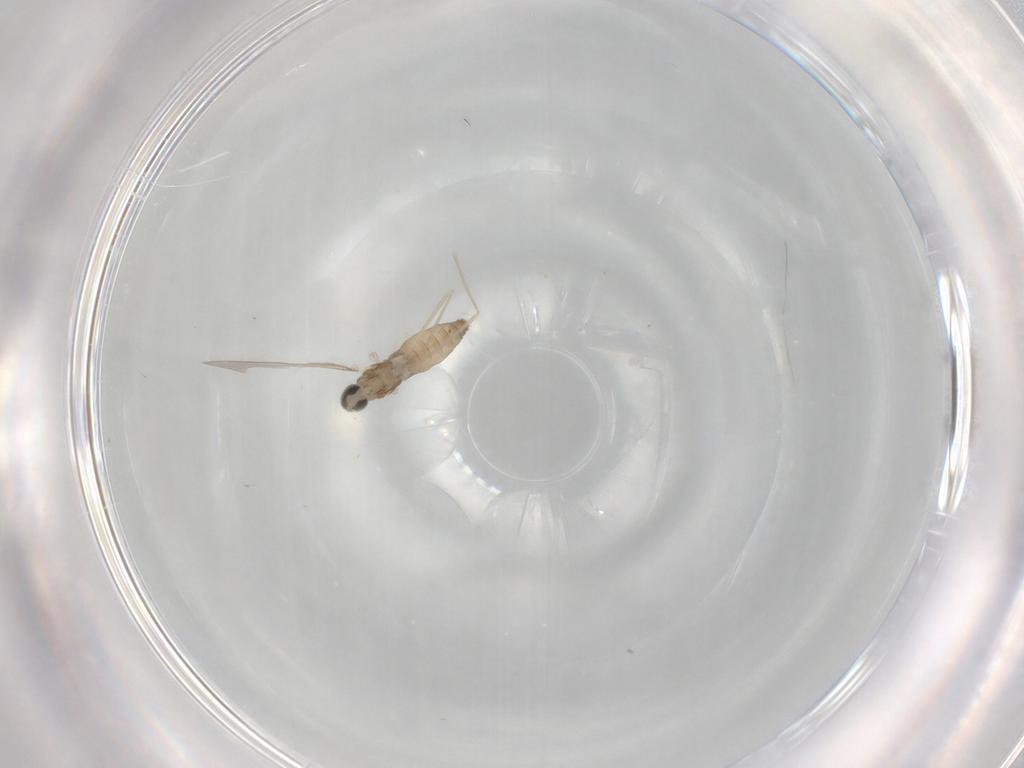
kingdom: Animalia
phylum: Arthropoda
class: Insecta
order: Diptera
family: Cecidomyiidae
